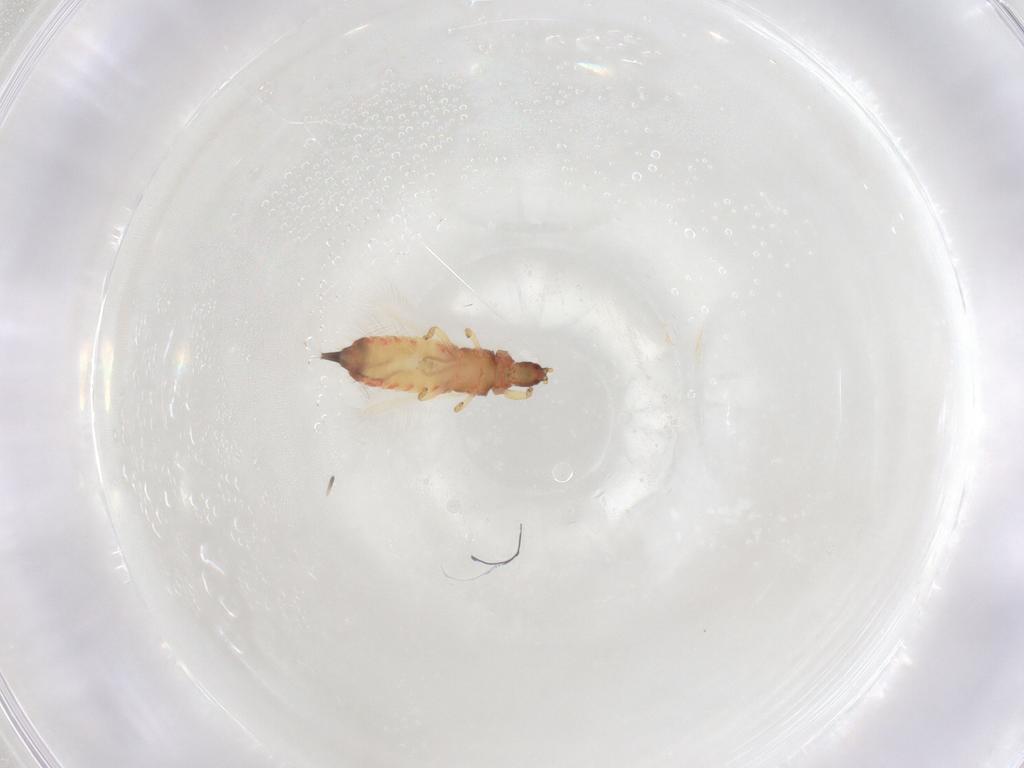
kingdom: Animalia
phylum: Arthropoda
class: Insecta
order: Thysanoptera
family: Phlaeothripidae
